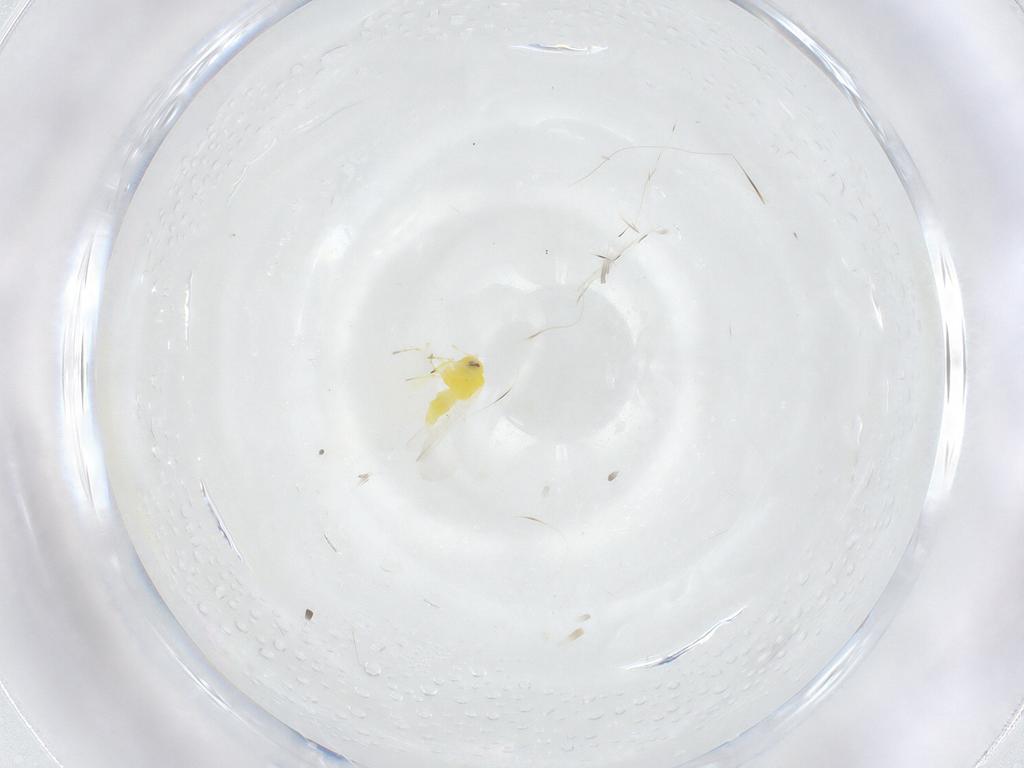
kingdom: Animalia
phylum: Arthropoda
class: Insecta
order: Hemiptera
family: Aleyrodidae
